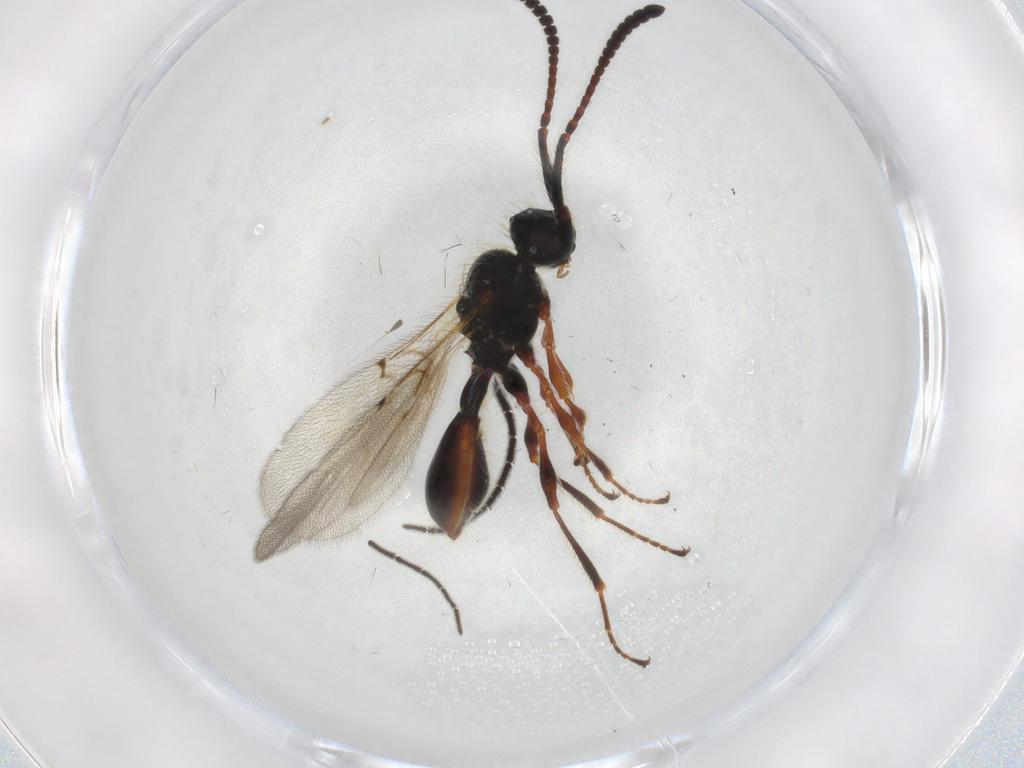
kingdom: Animalia
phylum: Arthropoda
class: Insecta
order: Hymenoptera
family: Diapriidae
